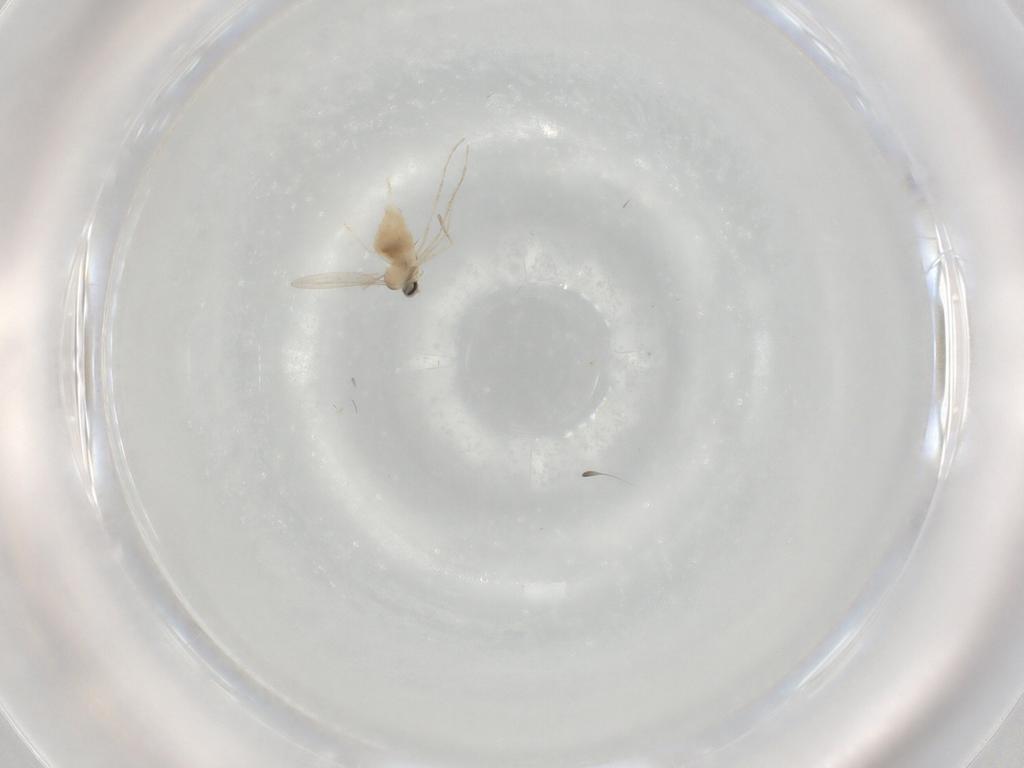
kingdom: Animalia
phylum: Arthropoda
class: Insecta
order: Diptera
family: Cecidomyiidae
